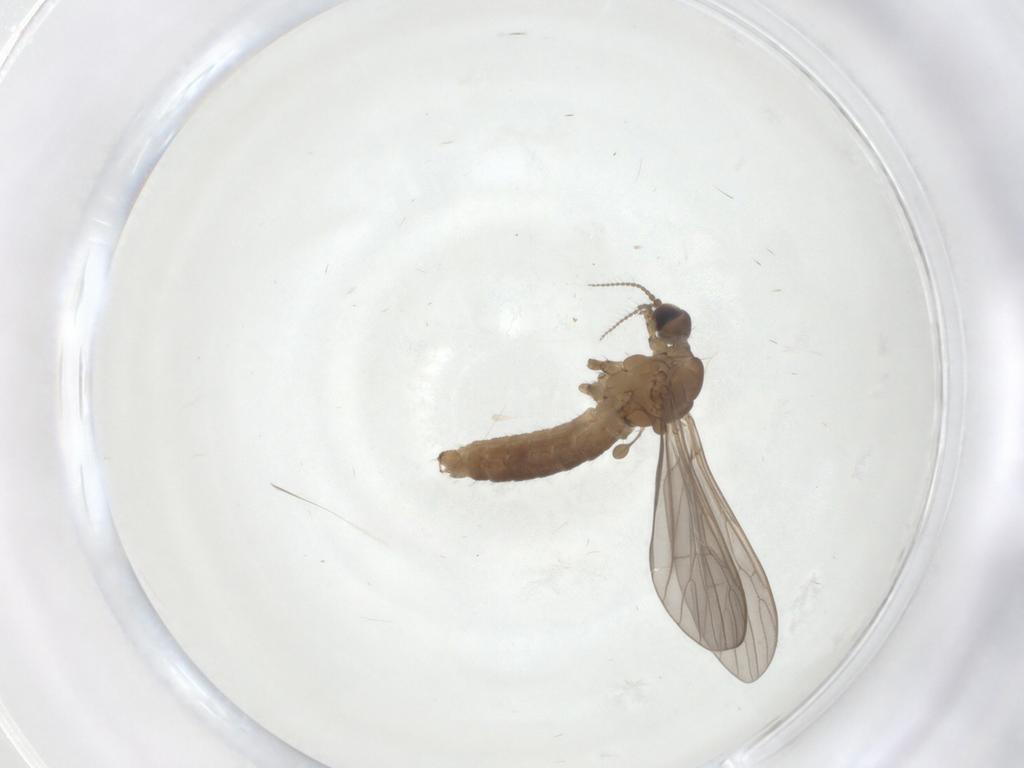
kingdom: Animalia
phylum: Arthropoda
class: Insecta
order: Diptera
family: Limoniidae
